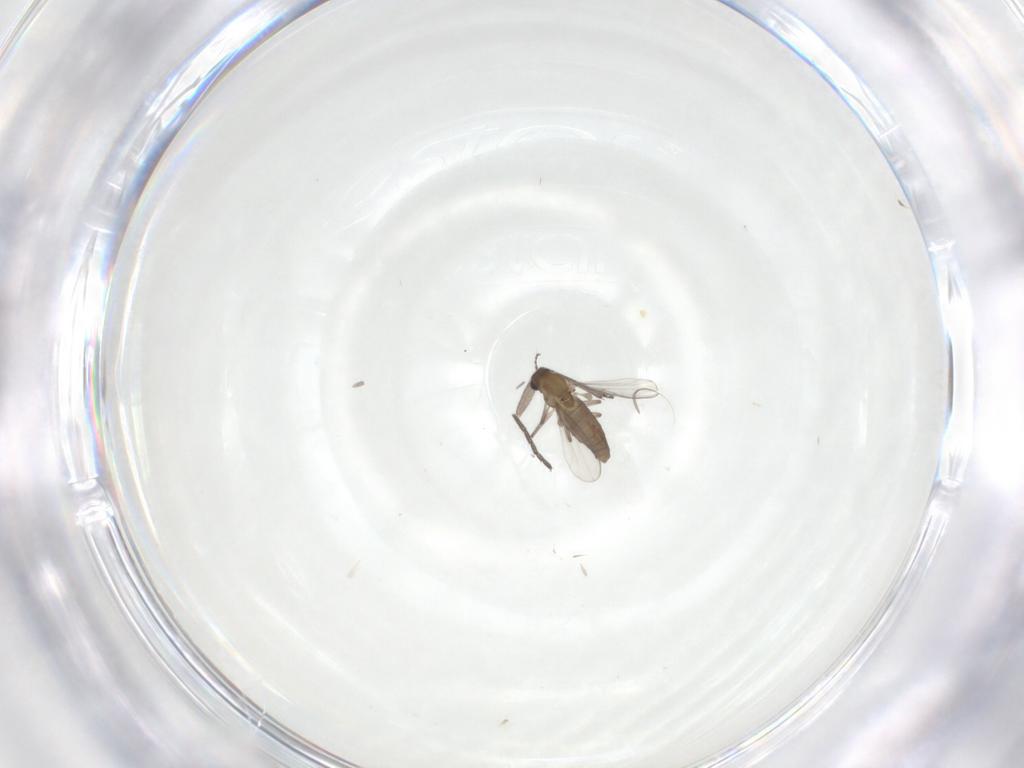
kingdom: Animalia
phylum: Arthropoda
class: Insecta
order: Diptera
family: Chironomidae
